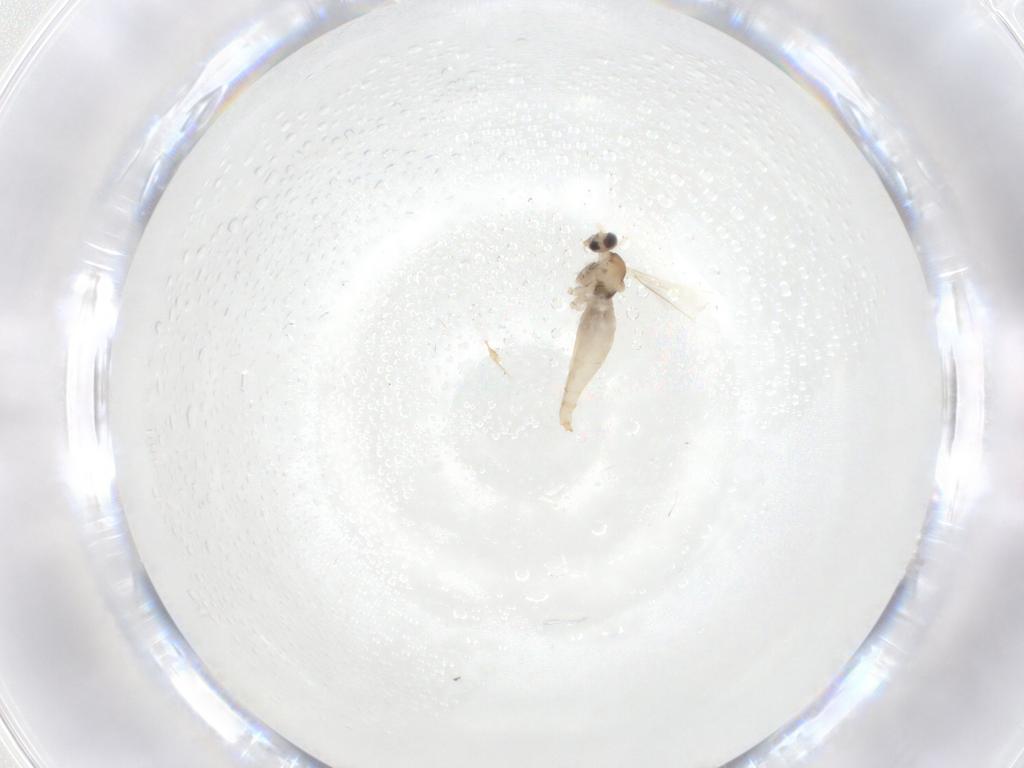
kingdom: Animalia
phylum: Arthropoda
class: Insecta
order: Diptera
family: Cecidomyiidae
